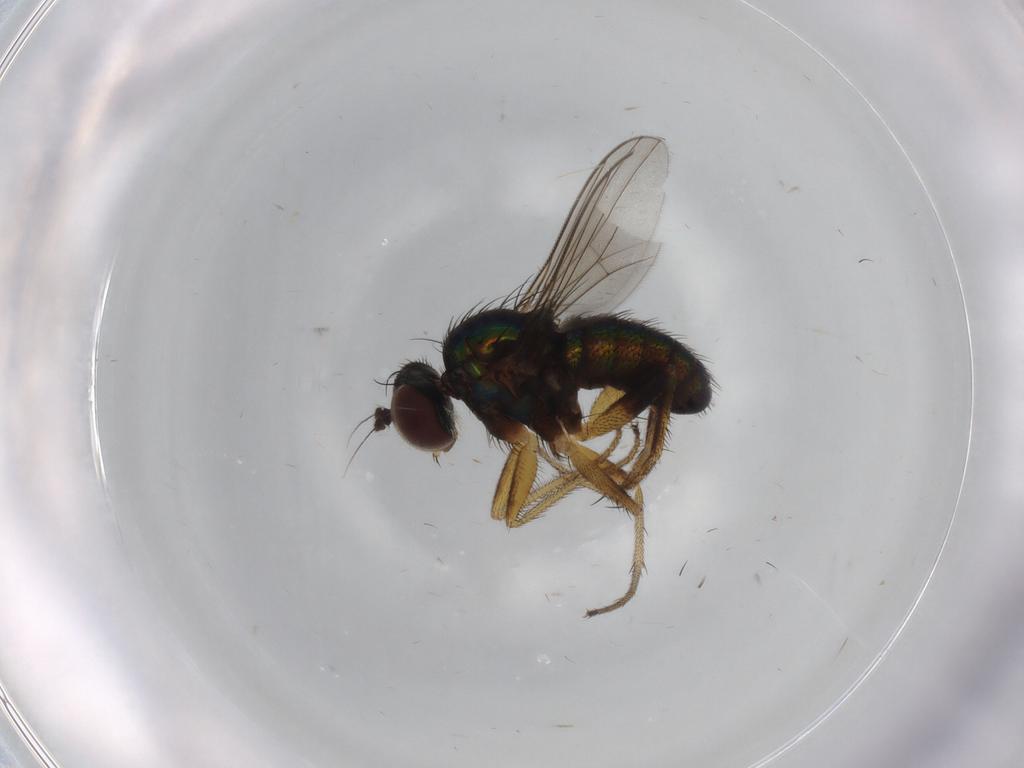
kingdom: Animalia
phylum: Arthropoda
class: Insecta
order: Diptera
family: Dolichopodidae
